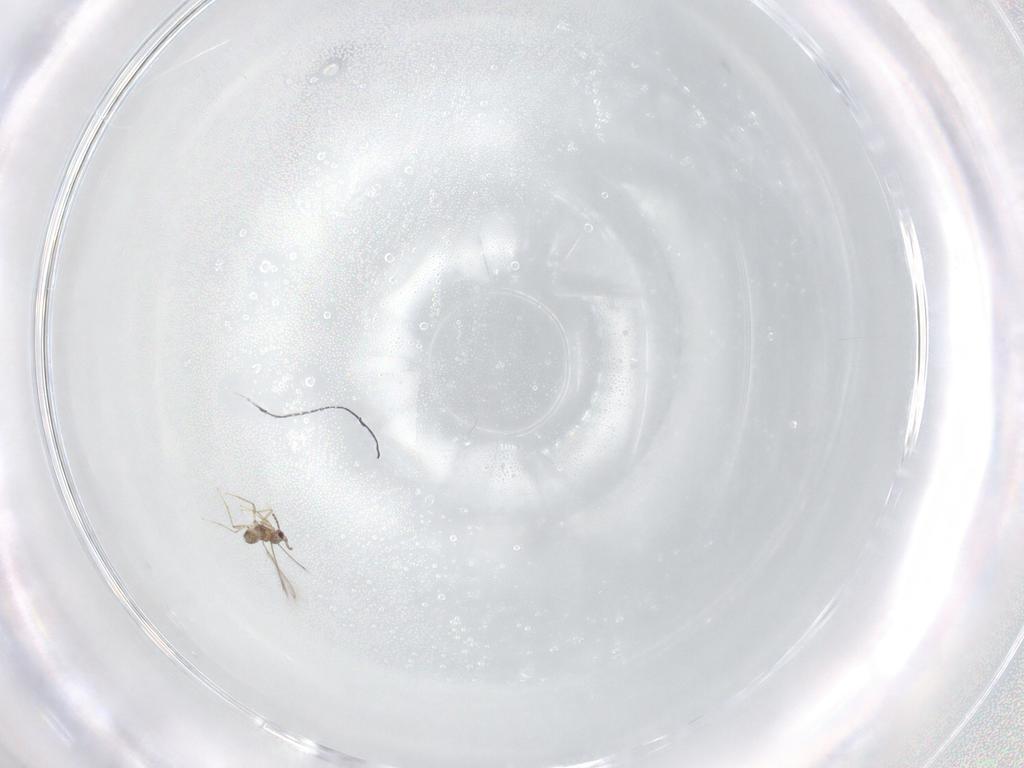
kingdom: Animalia
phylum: Arthropoda
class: Insecta
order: Hymenoptera
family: Mymaridae
